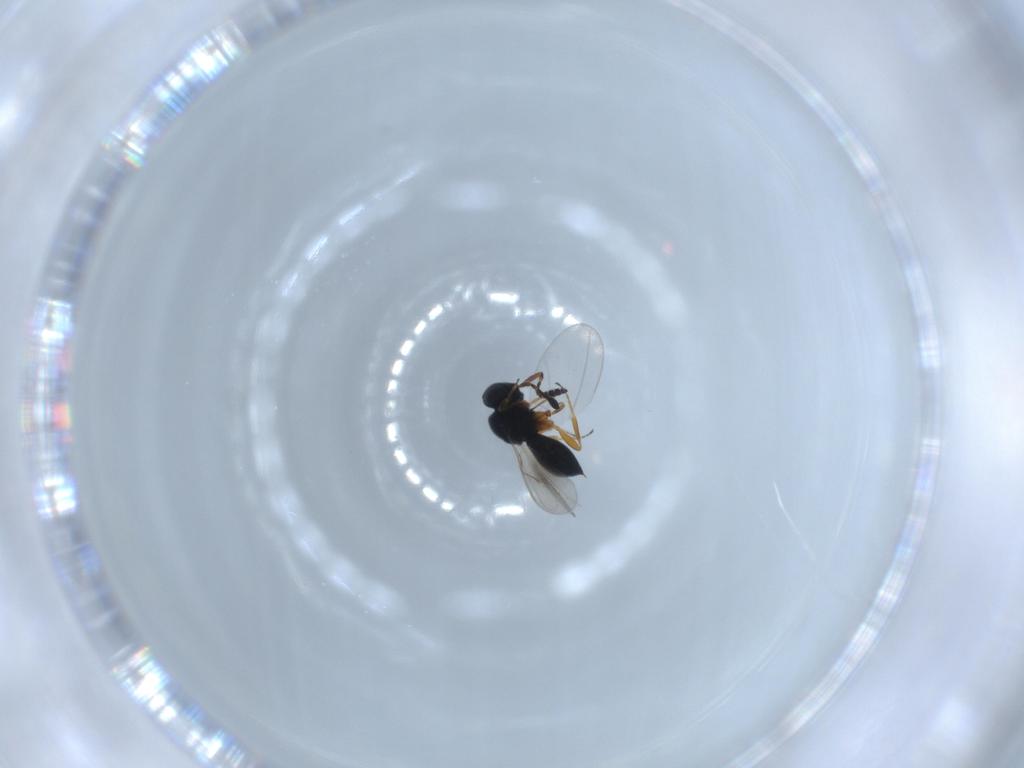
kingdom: Animalia
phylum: Arthropoda
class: Insecta
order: Hymenoptera
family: Scelionidae
